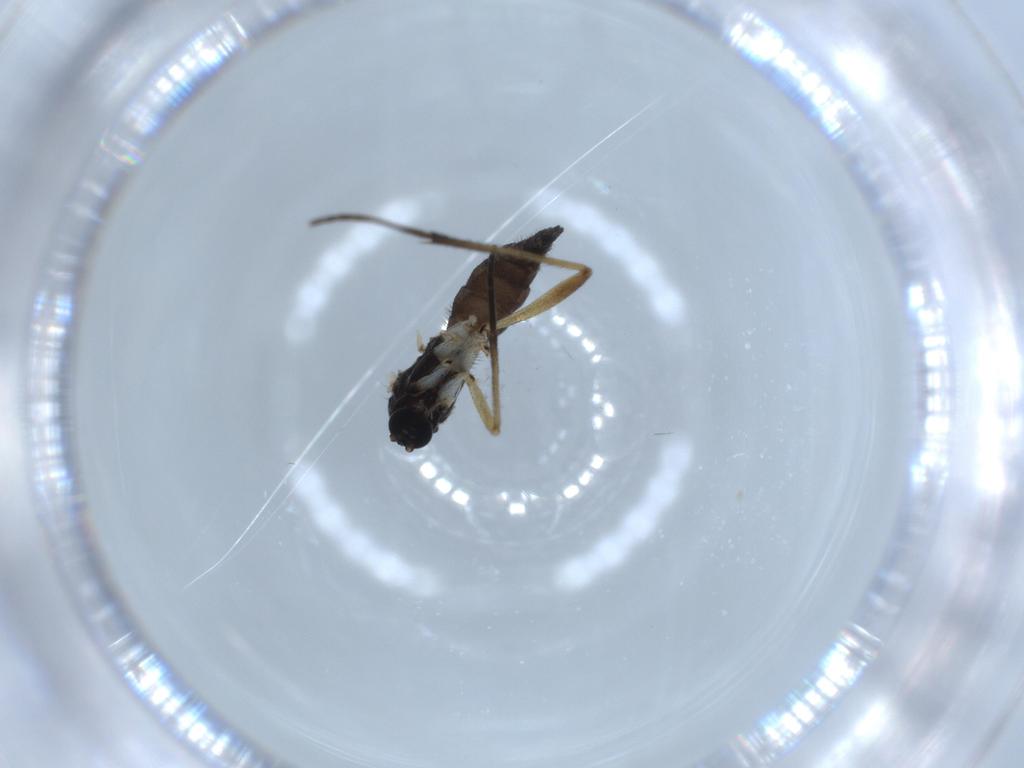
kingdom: Animalia
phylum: Arthropoda
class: Insecta
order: Diptera
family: Sciaridae
